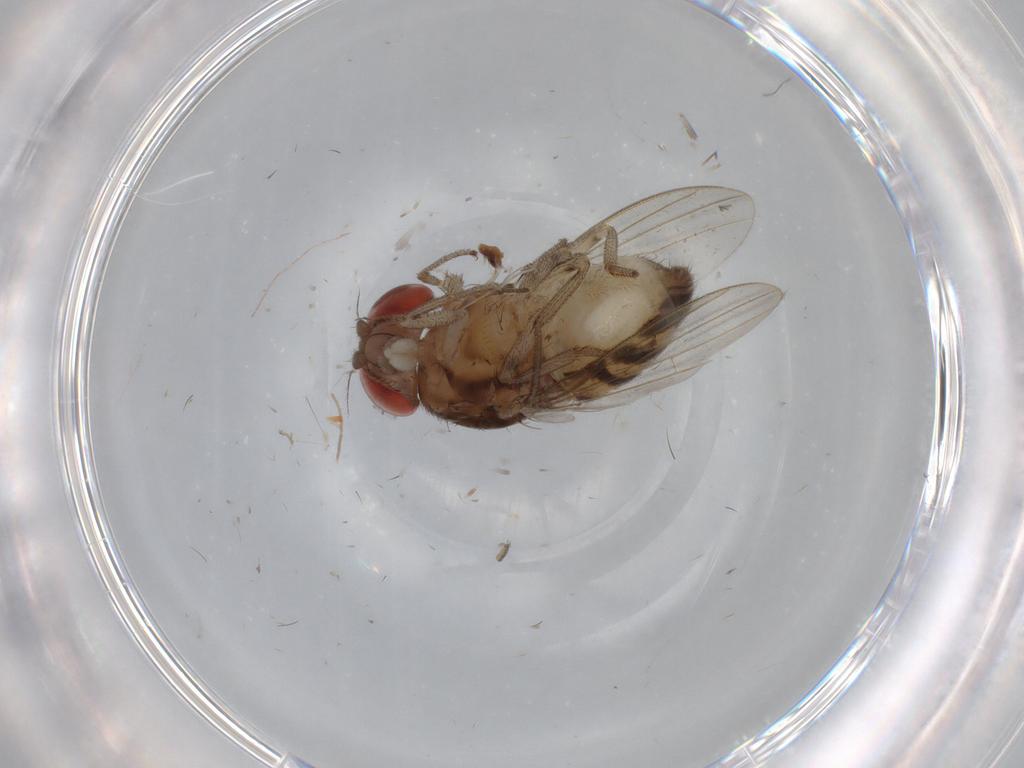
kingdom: Animalia
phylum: Arthropoda
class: Insecta
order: Diptera
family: Drosophilidae
